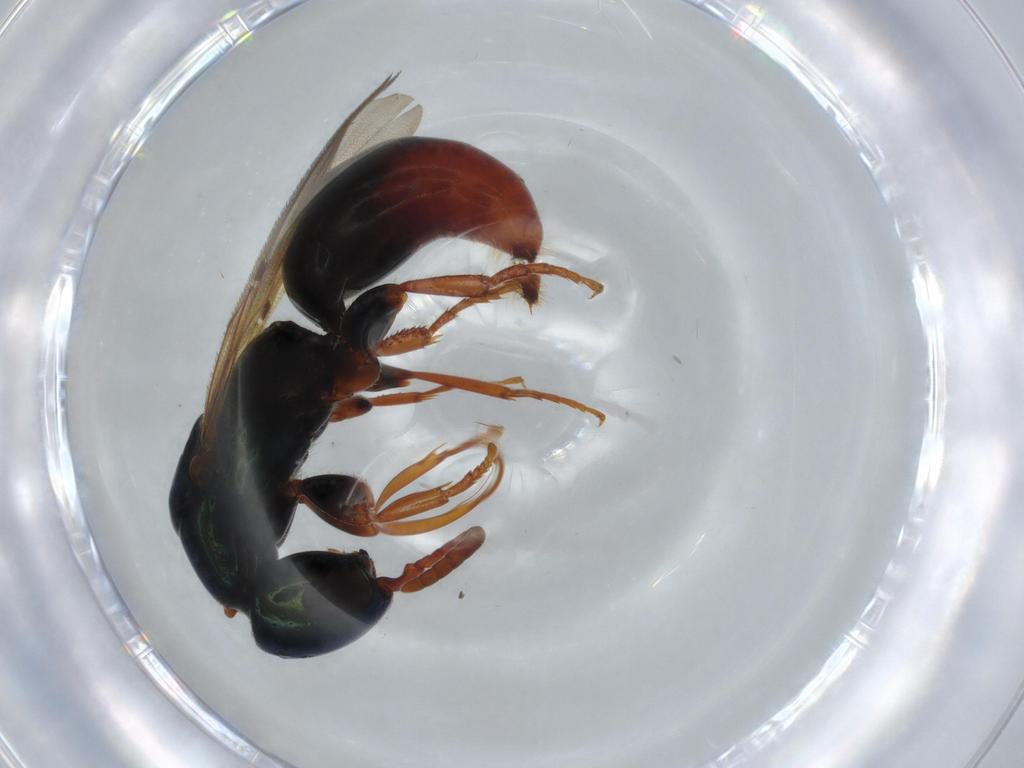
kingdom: Animalia
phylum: Arthropoda
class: Insecta
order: Hymenoptera
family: Bethylidae
